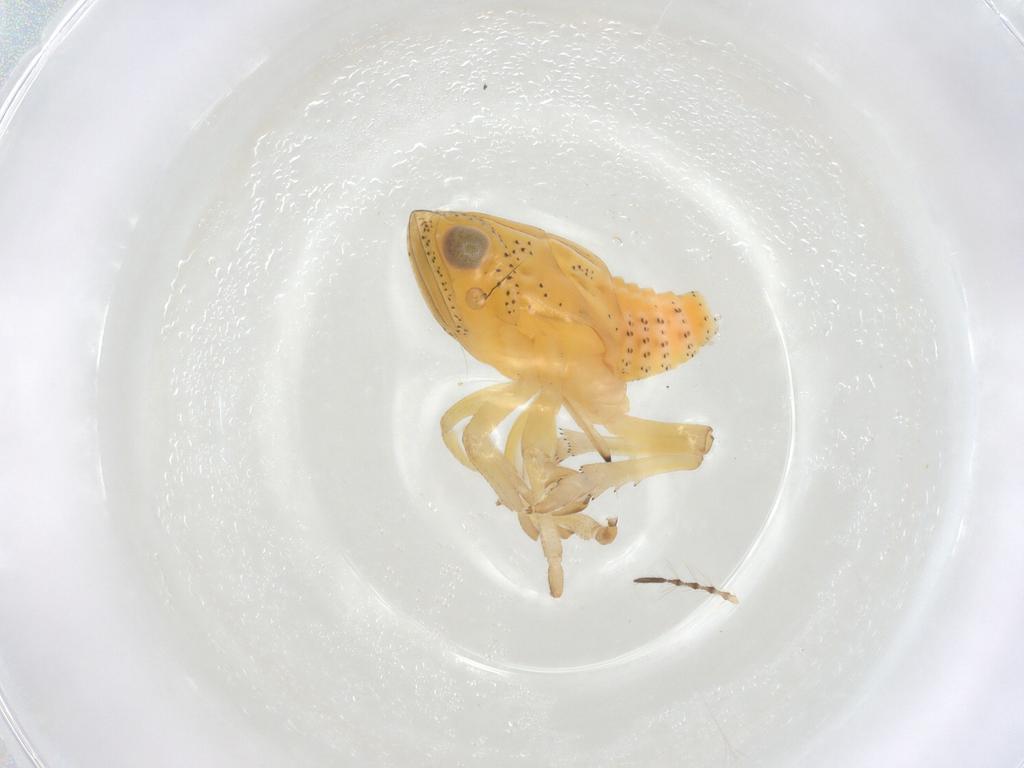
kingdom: Animalia
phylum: Arthropoda
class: Insecta
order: Hemiptera
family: Tropiduchidae
